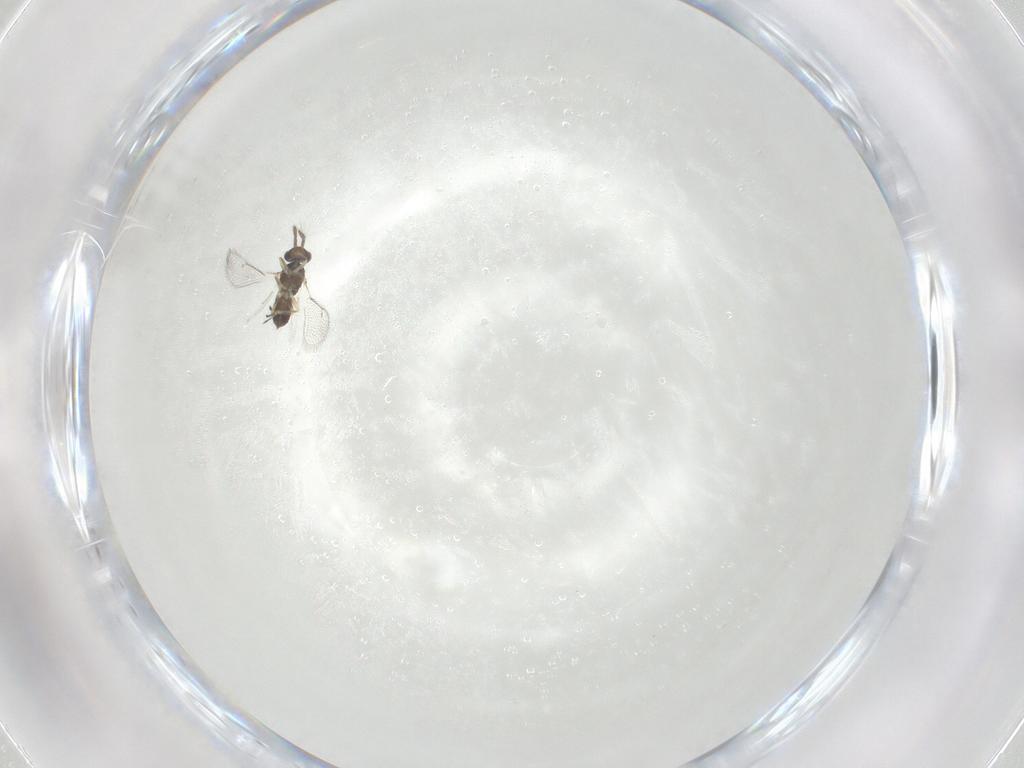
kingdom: Animalia
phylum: Arthropoda
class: Insecta
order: Hymenoptera
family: Eulophidae
